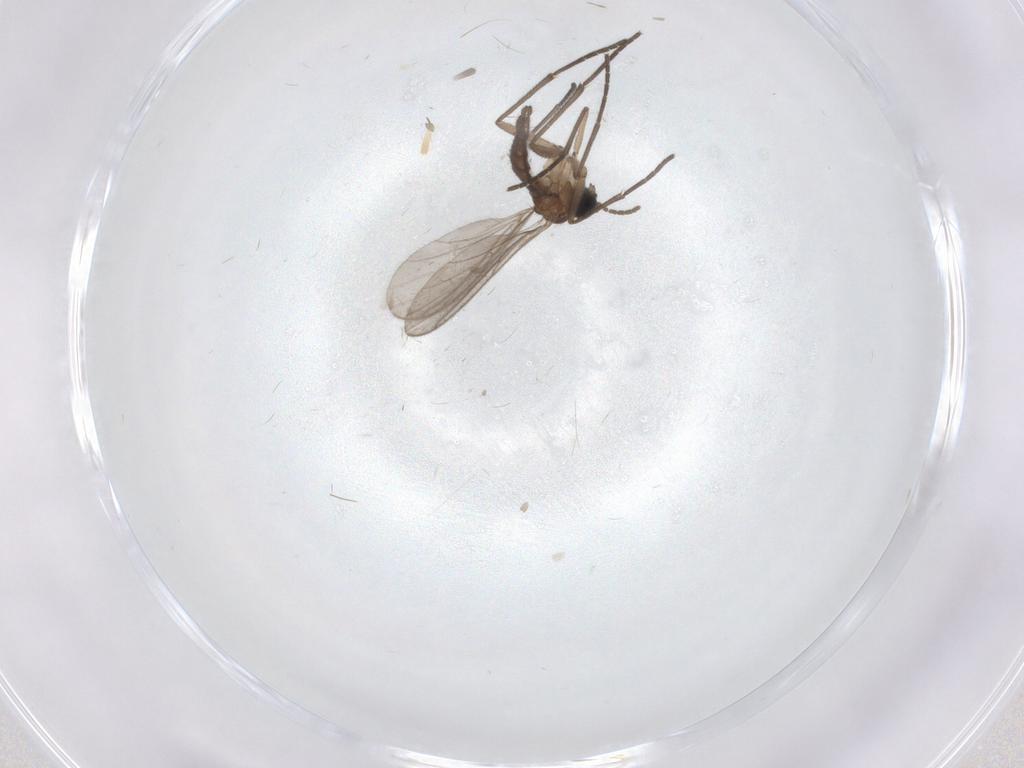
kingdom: Animalia
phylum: Arthropoda
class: Insecta
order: Diptera
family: Sciaridae
